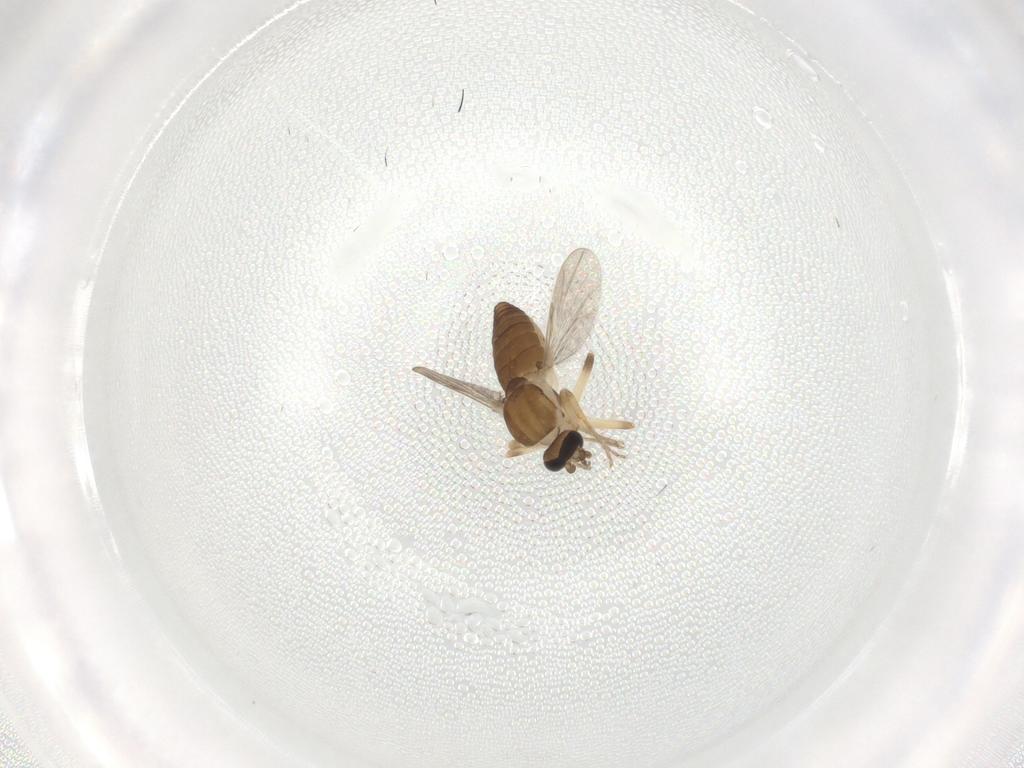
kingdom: Animalia
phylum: Arthropoda
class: Insecta
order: Diptera
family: Ceratopogonidae
